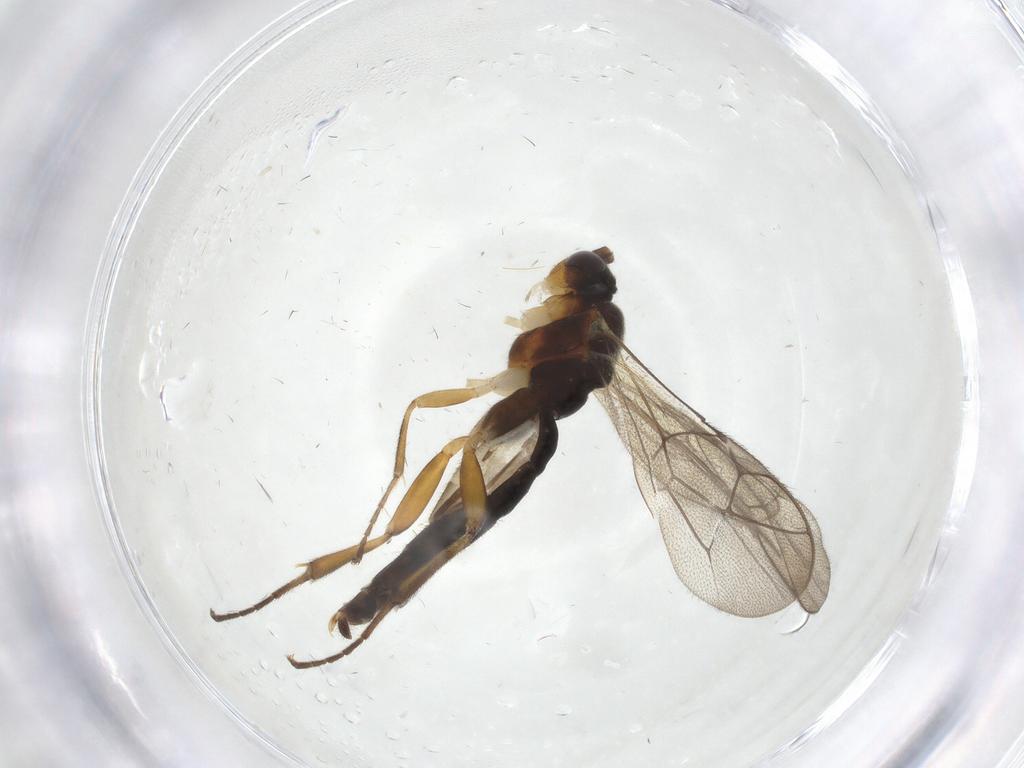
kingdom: Animalia
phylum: Arthropoda
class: Insecta
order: Hymenoptera
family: Ichneumonidae
